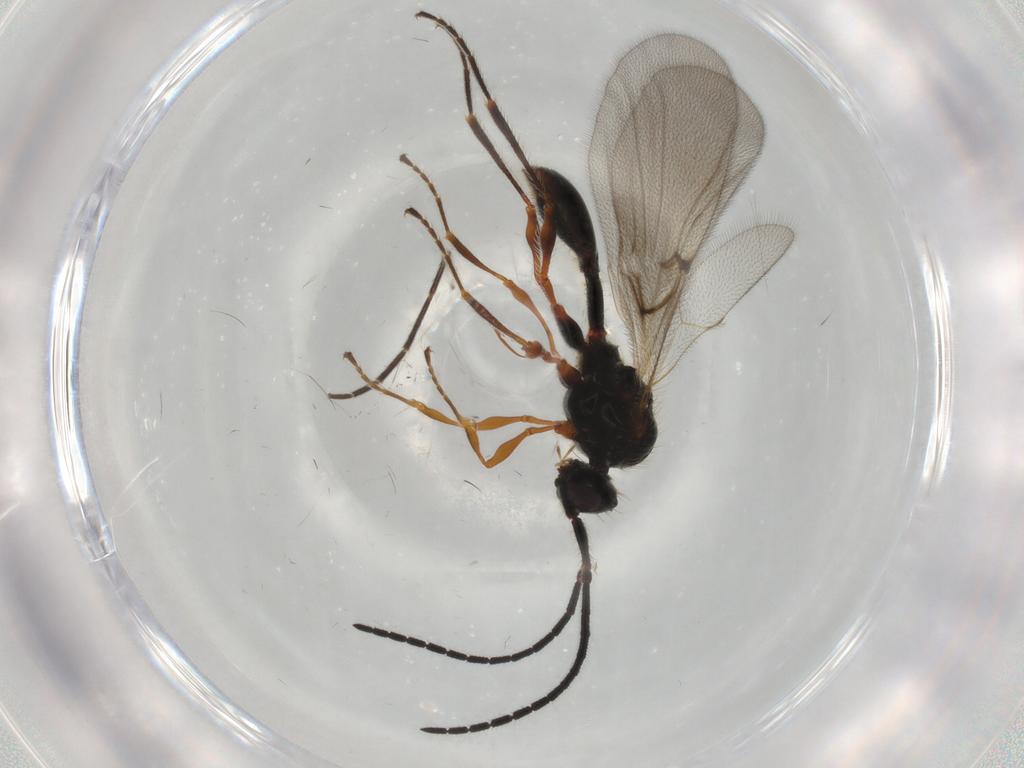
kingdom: Animalia
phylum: Arthropoda
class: Insecta
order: Hymenoptera
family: Diapriidae
